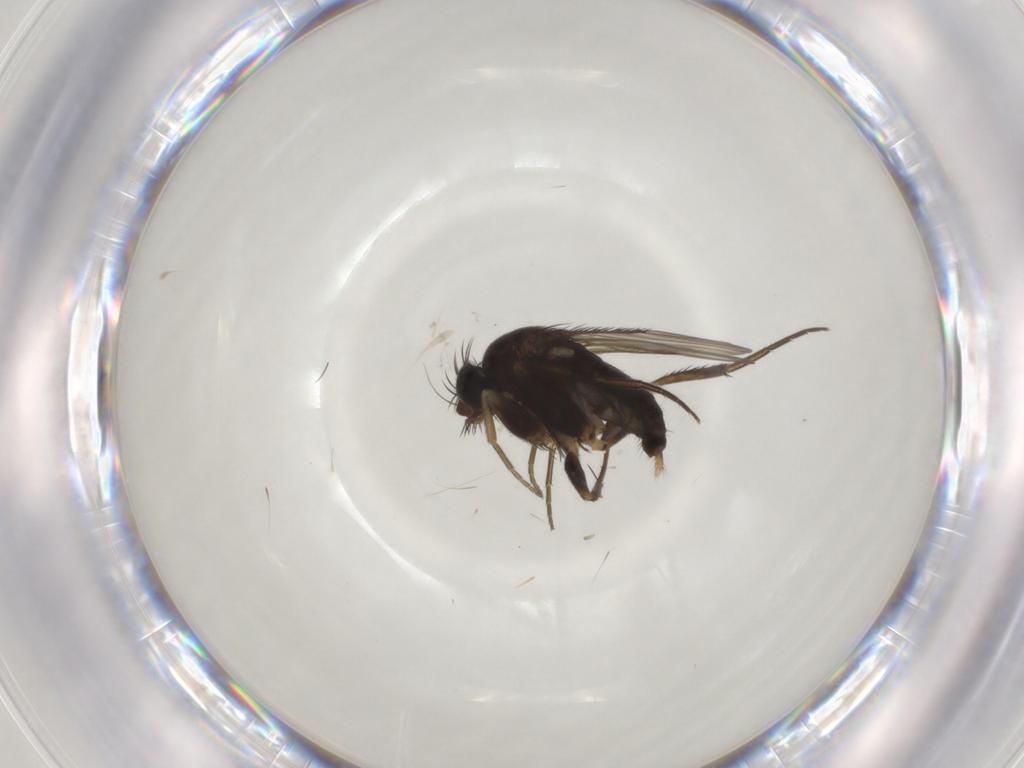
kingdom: Animalia
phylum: Arthropoda
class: Insecta
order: Diptera
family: Phoridae
